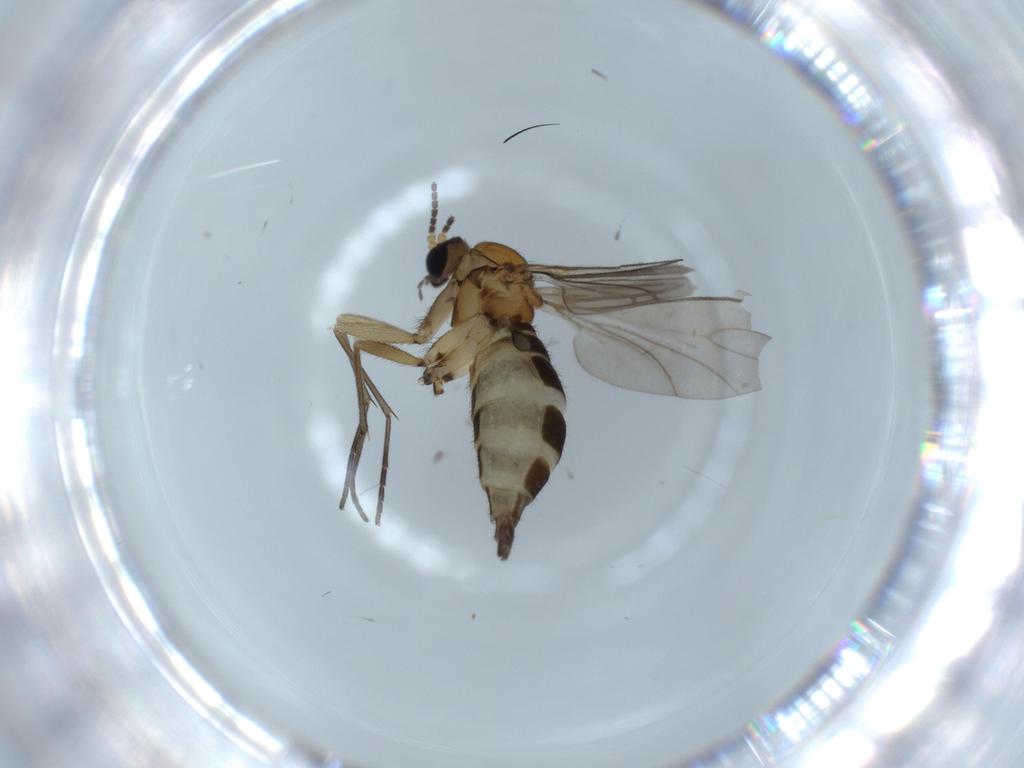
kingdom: Animalia
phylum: Arthropoda
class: Insecta
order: Diptera
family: Sciaridae
